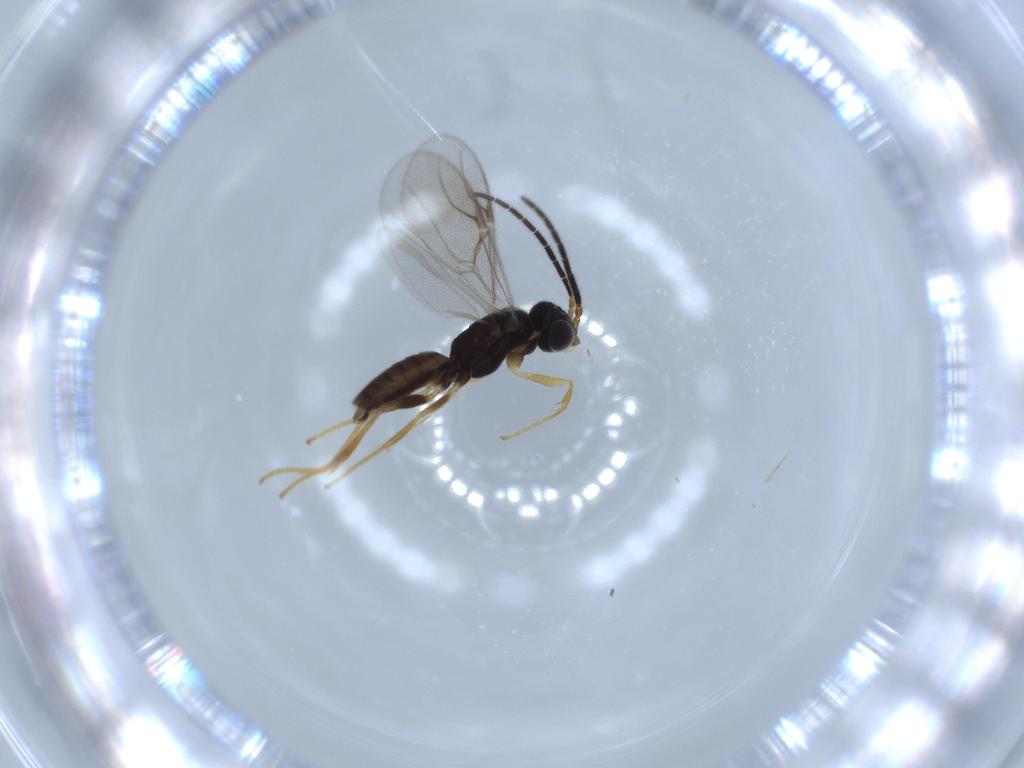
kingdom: Animalia
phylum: Arthropoda
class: Insecta
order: Hymenoptera
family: Dryinidae
